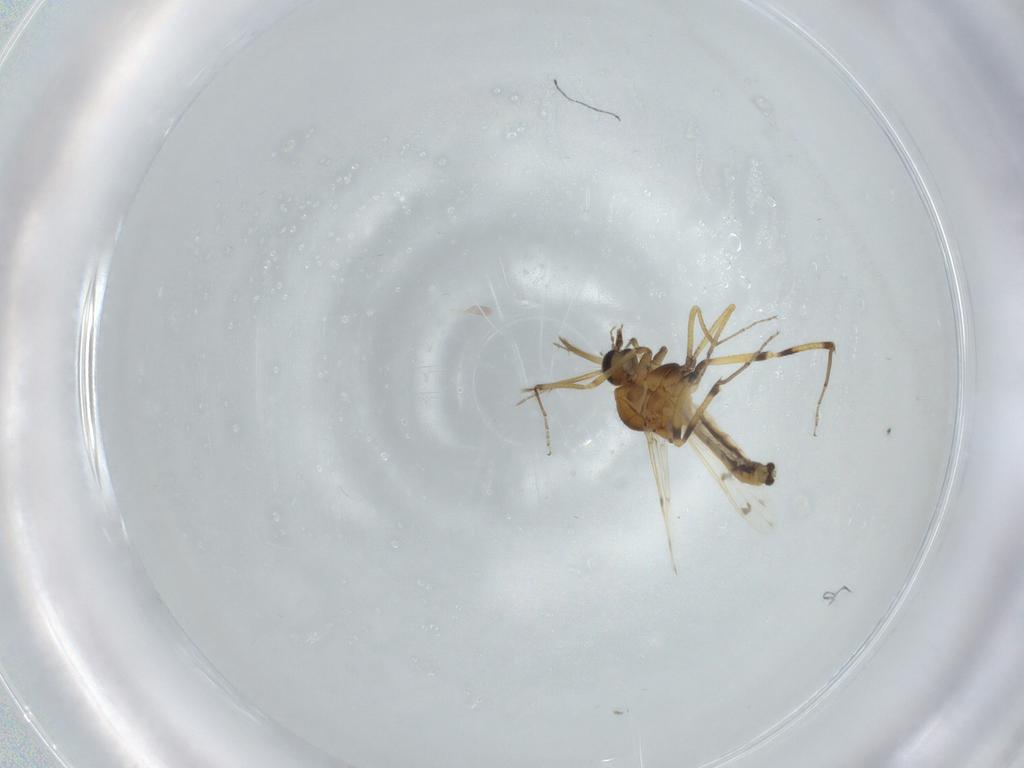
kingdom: Animalia
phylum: Arthropoda
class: Insecta
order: Diptera
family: Ceratopogonidae
